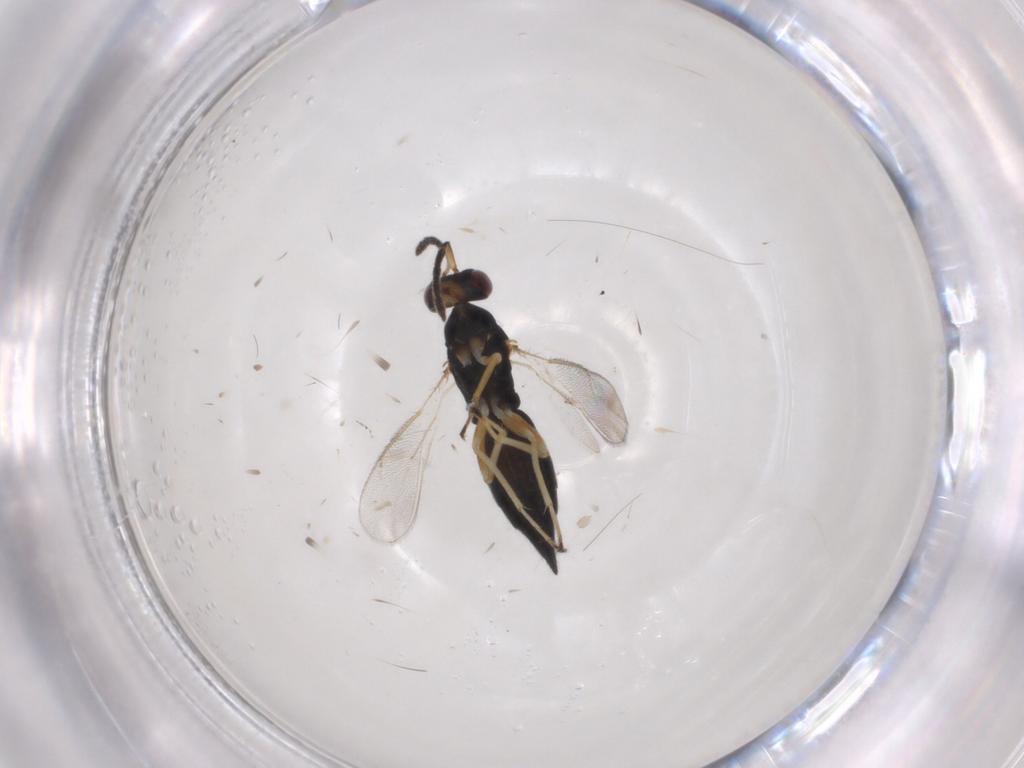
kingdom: Animalia
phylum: Arthropoda
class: Insecta
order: Hymenoptera
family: Eulophidae
